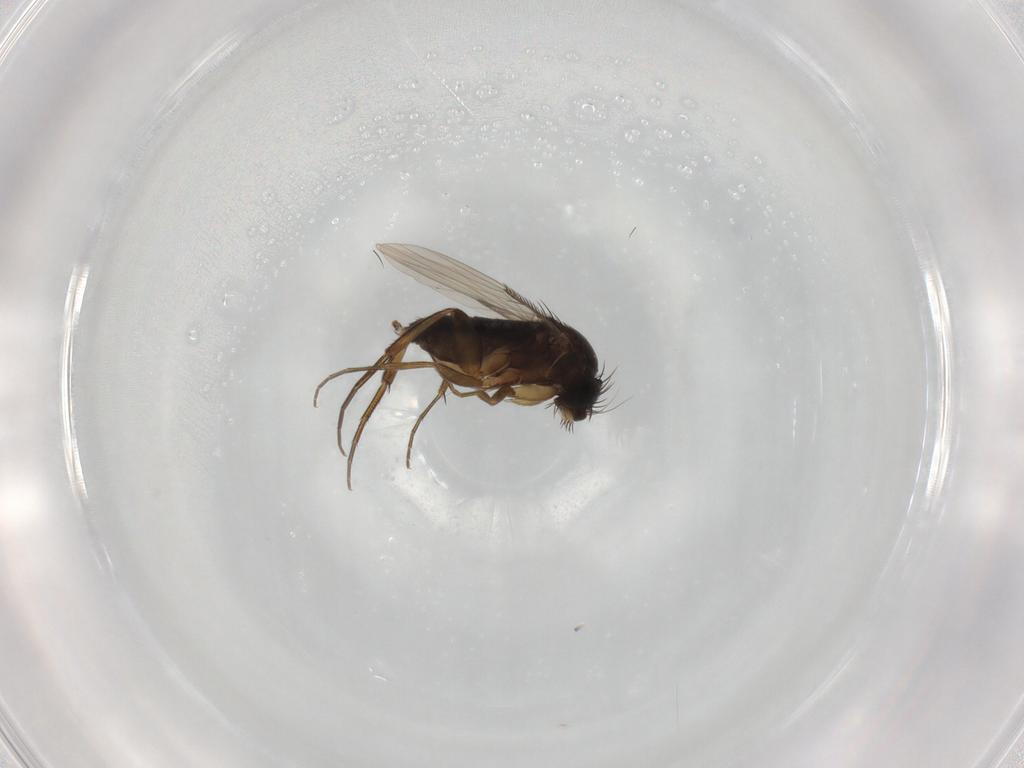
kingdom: Animalia
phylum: Arthropoda
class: Insecta
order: Diptera
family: Phoridae
